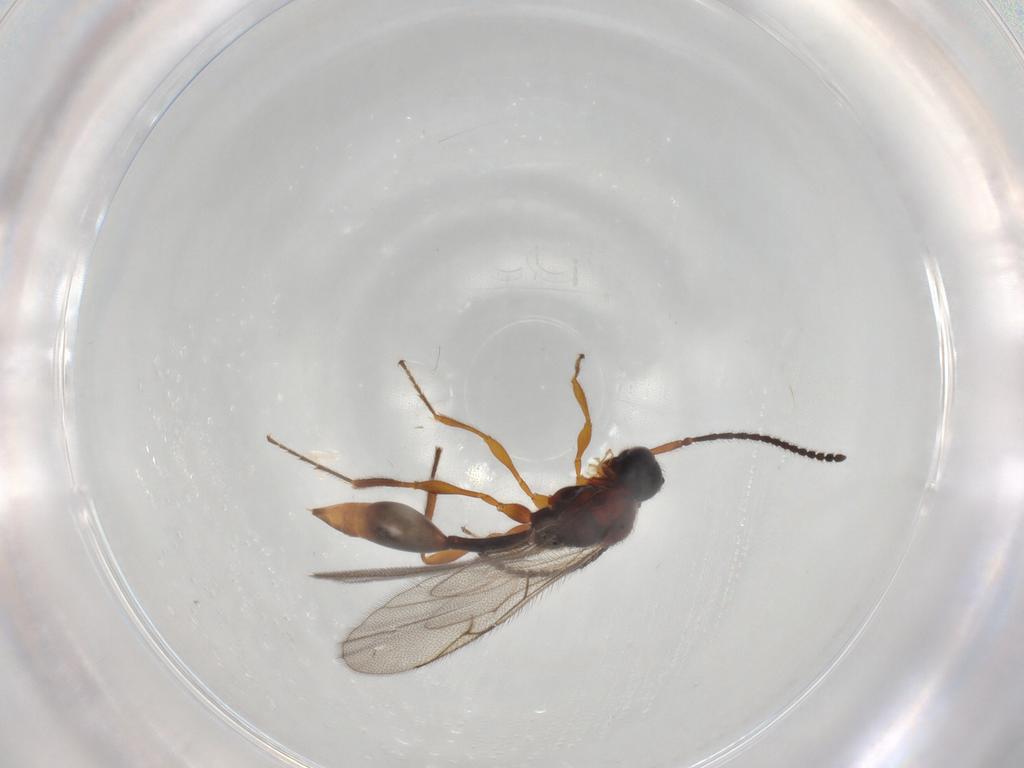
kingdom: Animalia
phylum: Arthropoda
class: Insecta
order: Hymenoptera
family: Diapriidae
